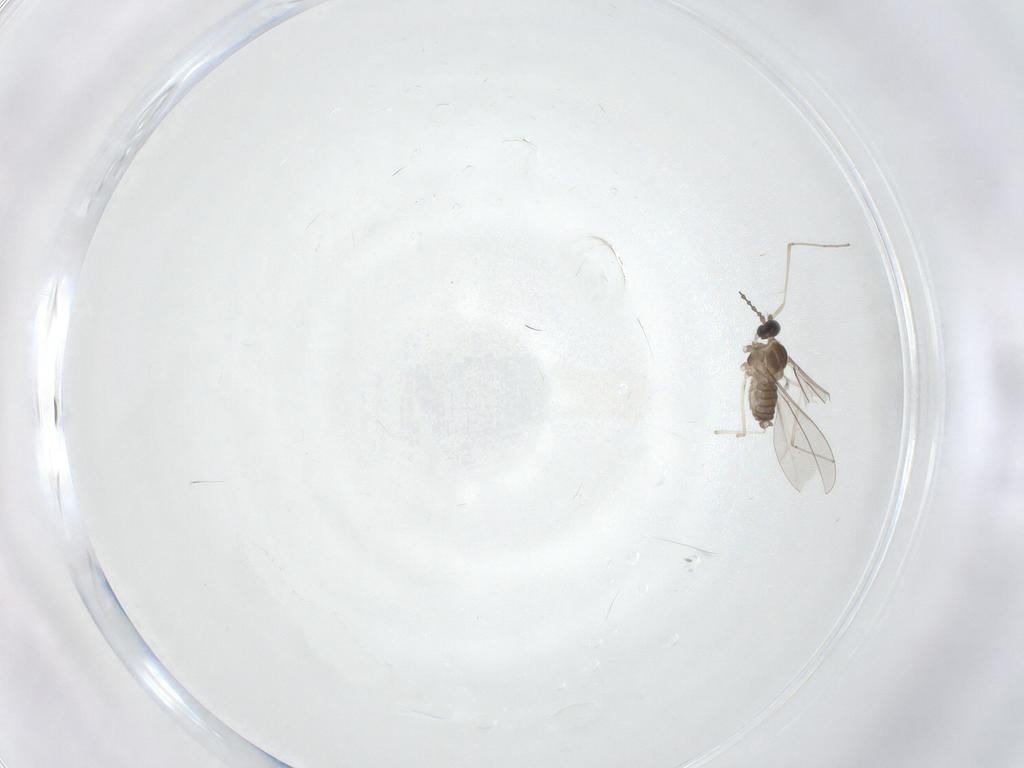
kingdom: Animalia
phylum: Arthropoda
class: Insecta
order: Diptera
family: Cecidomyiidae
